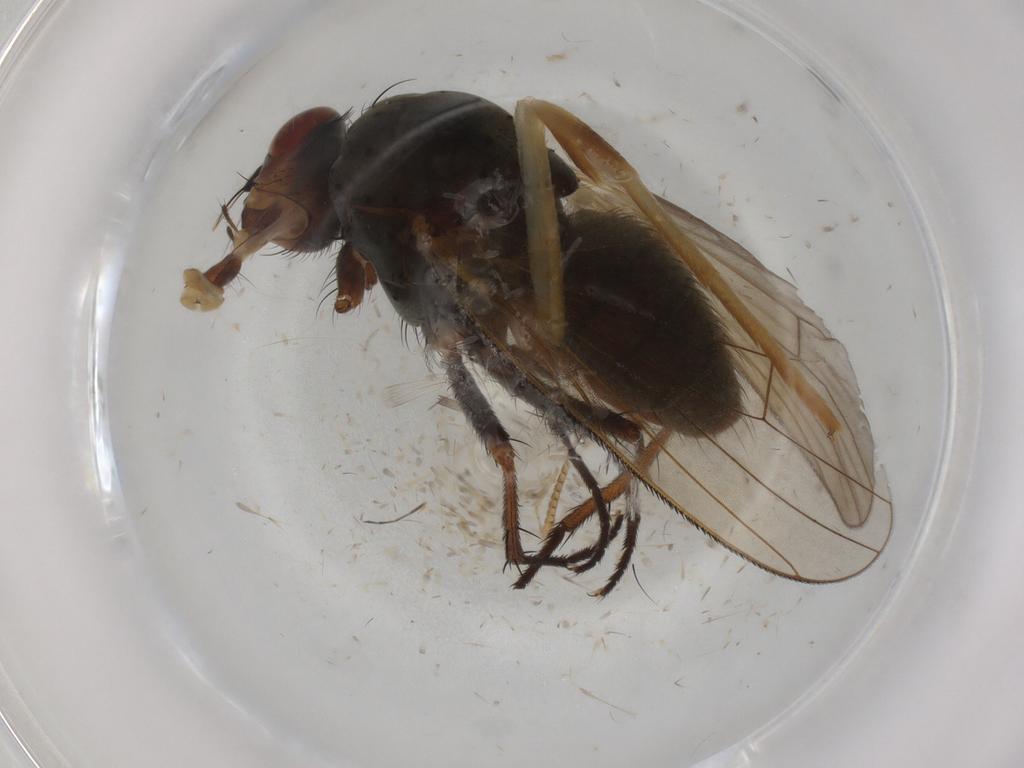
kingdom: Animalia
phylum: Arthropoda
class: Insecta
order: Diptera
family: Anthomyiidae
